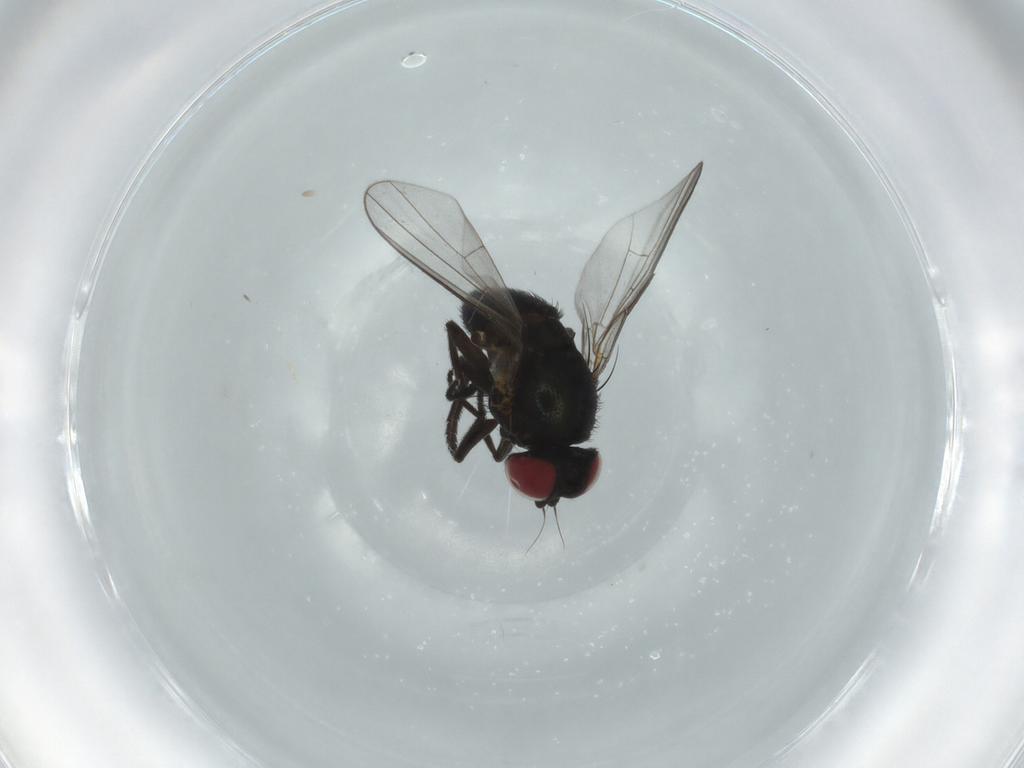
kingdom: Animalia
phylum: Arthropoda
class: Insecta
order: Diptera
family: Agromyzidae
